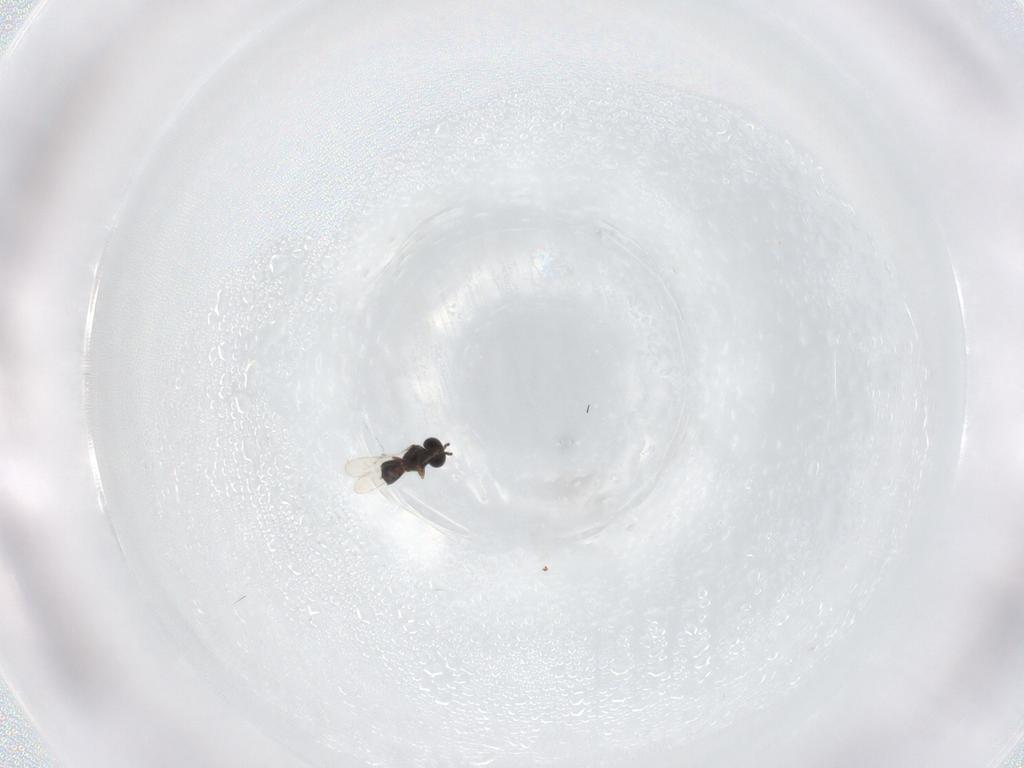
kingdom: Animalia
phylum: Arthropoda
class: Insecta
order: Hymenoptera
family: Scelionidae
